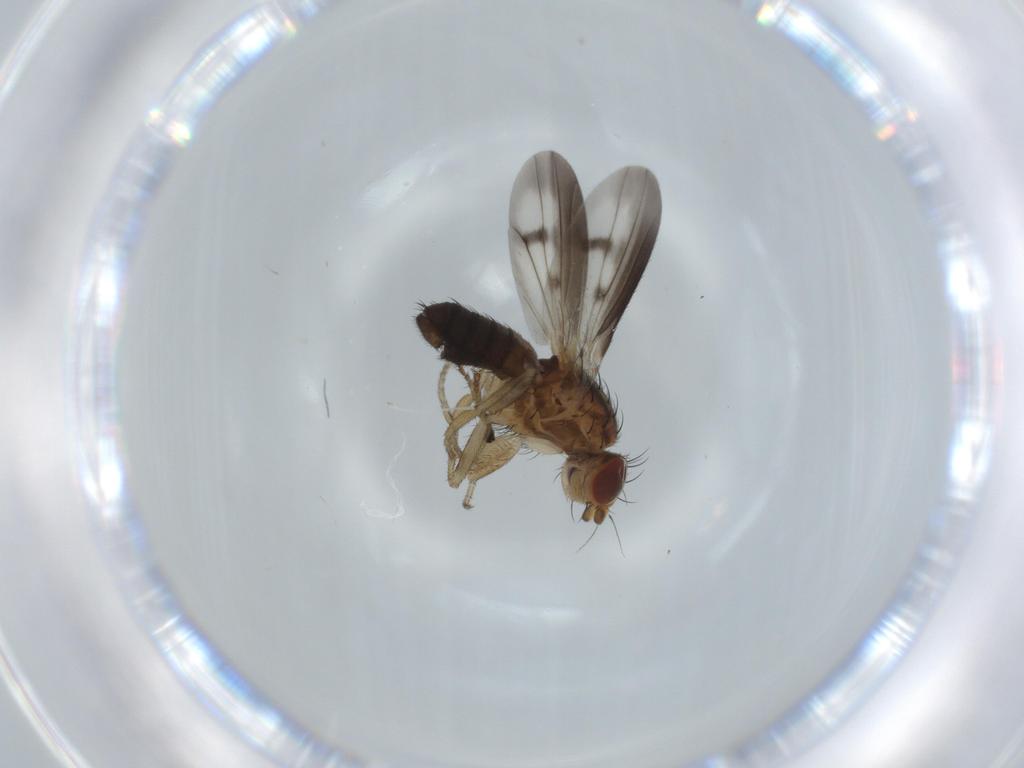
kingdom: Animalia
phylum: Arthropoda
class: Insecta
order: Diptera
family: Heleomyzidae
